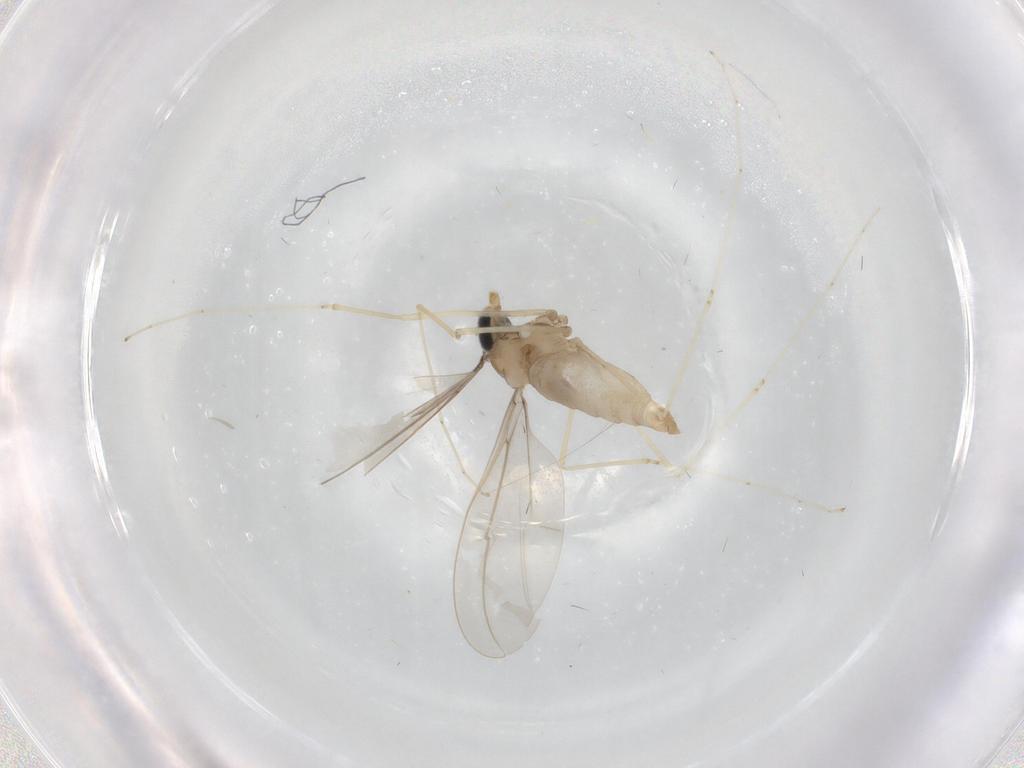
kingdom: Animalia
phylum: Arthropoda
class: Insecta
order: Diptera
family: Cecidomyiidae
